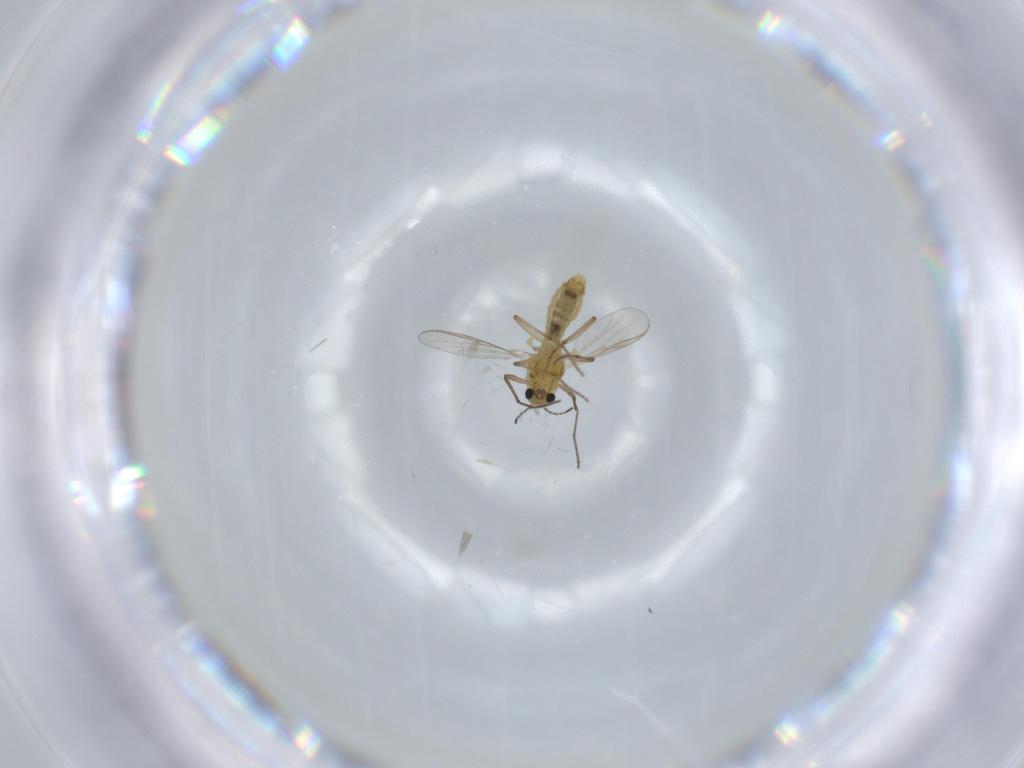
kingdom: Animalia
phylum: Arthropoda
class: Insecta
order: Diptera
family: Chironomidae
